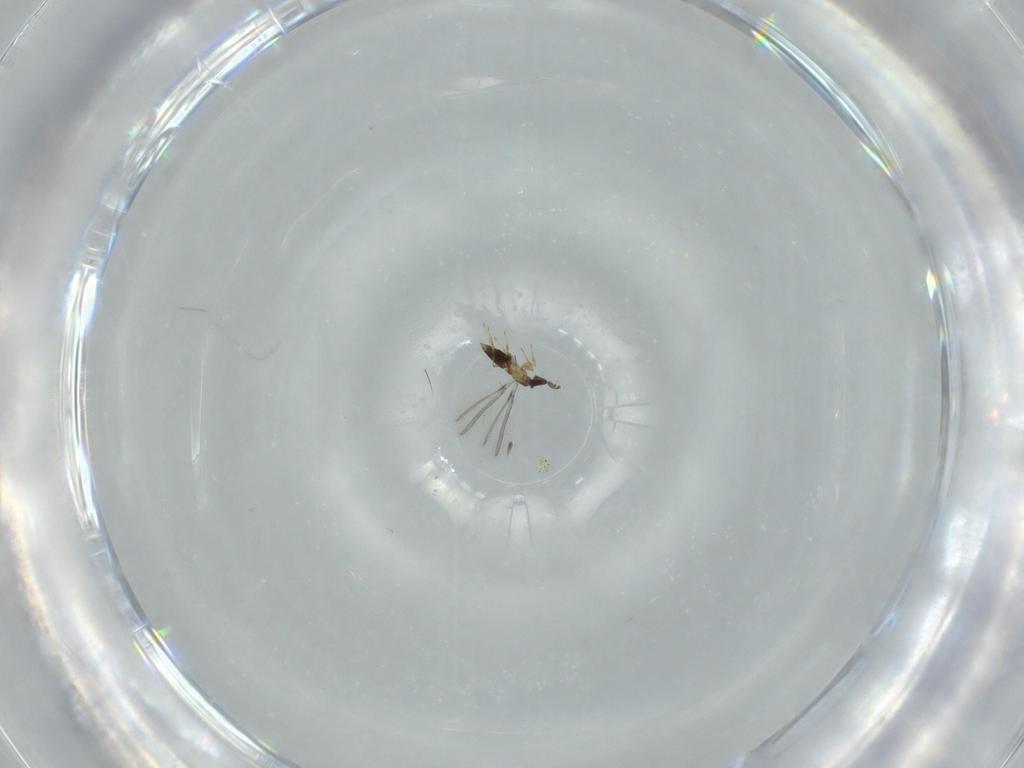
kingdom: Animalia
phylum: Arthropoda
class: Insecta
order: Hymenoptera
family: Mymaridae
